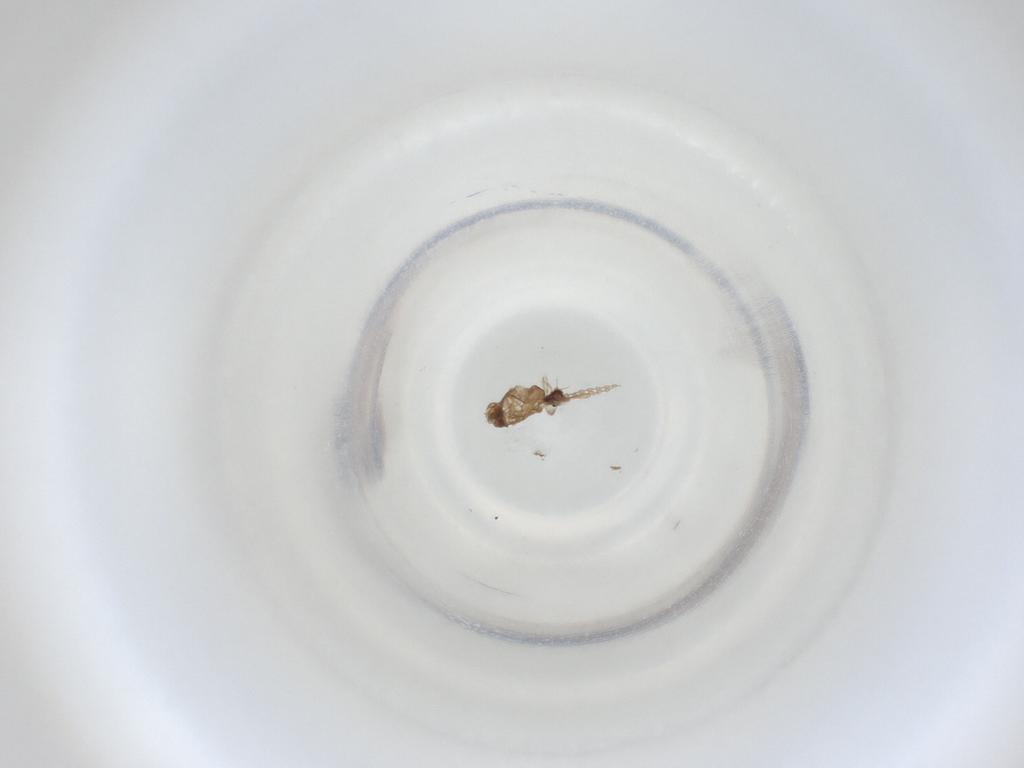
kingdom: Animalia
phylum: Arthropoda
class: Insecta
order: Diptera
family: Cecidomyiidae
